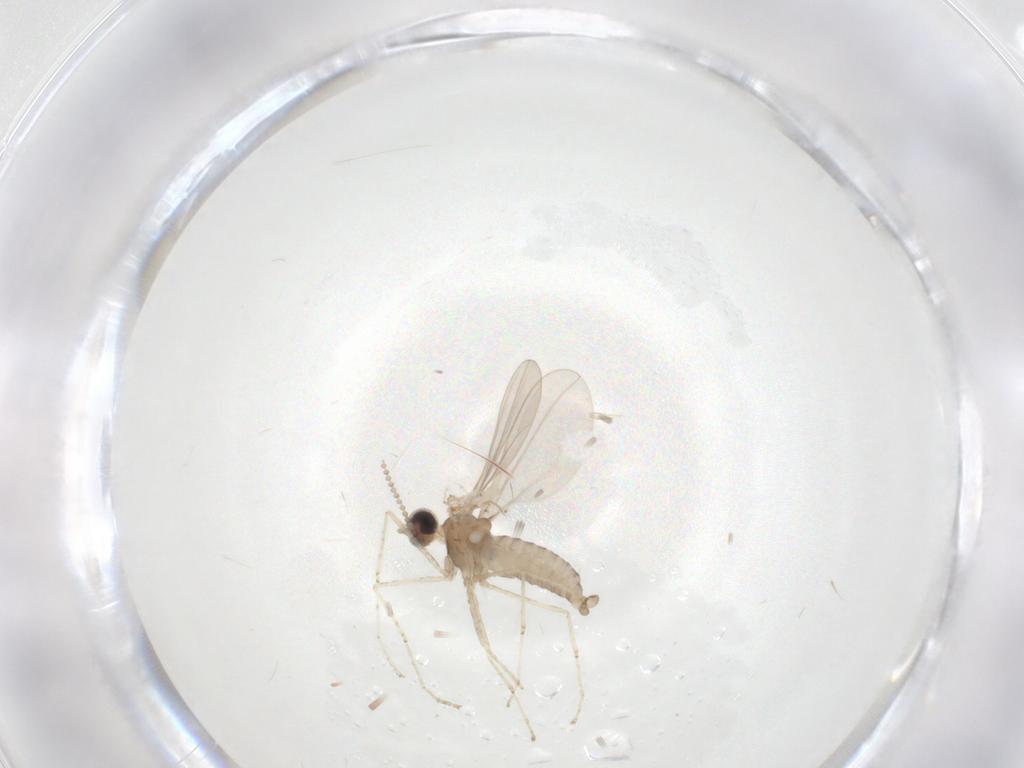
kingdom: Animalia
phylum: Arthropoda
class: Insecta
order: Diptera
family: Cecidomyiidae
